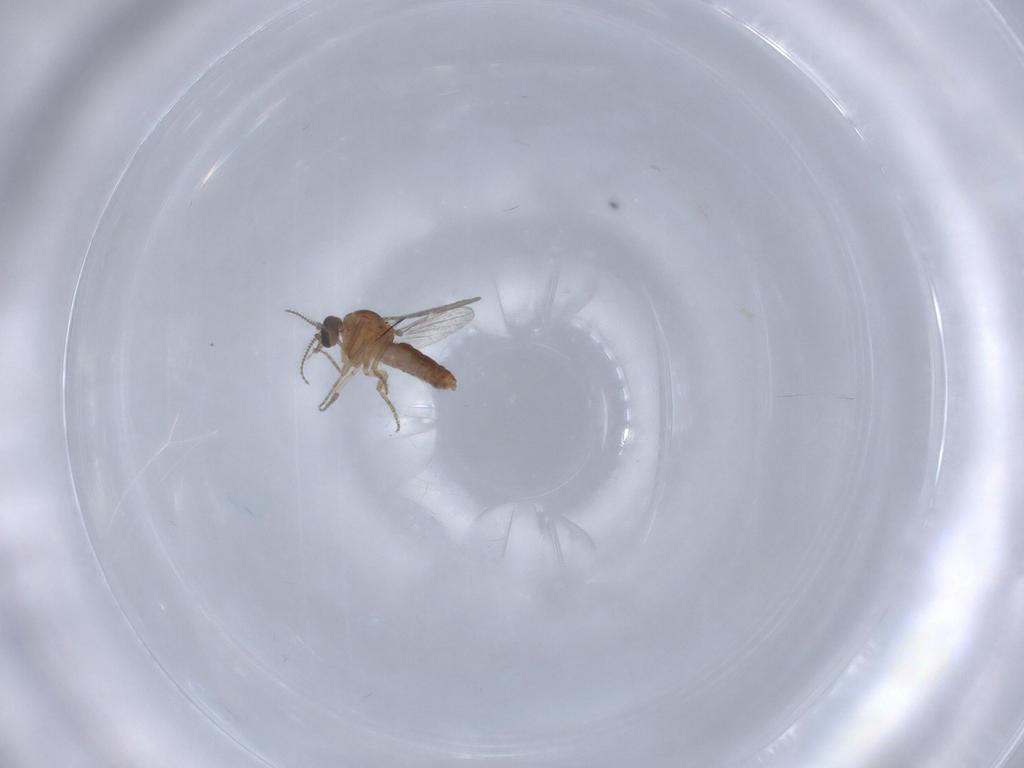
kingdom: Animalia
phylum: Arthropoda
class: Insecta
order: Diptera
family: Ceratopogonidae
